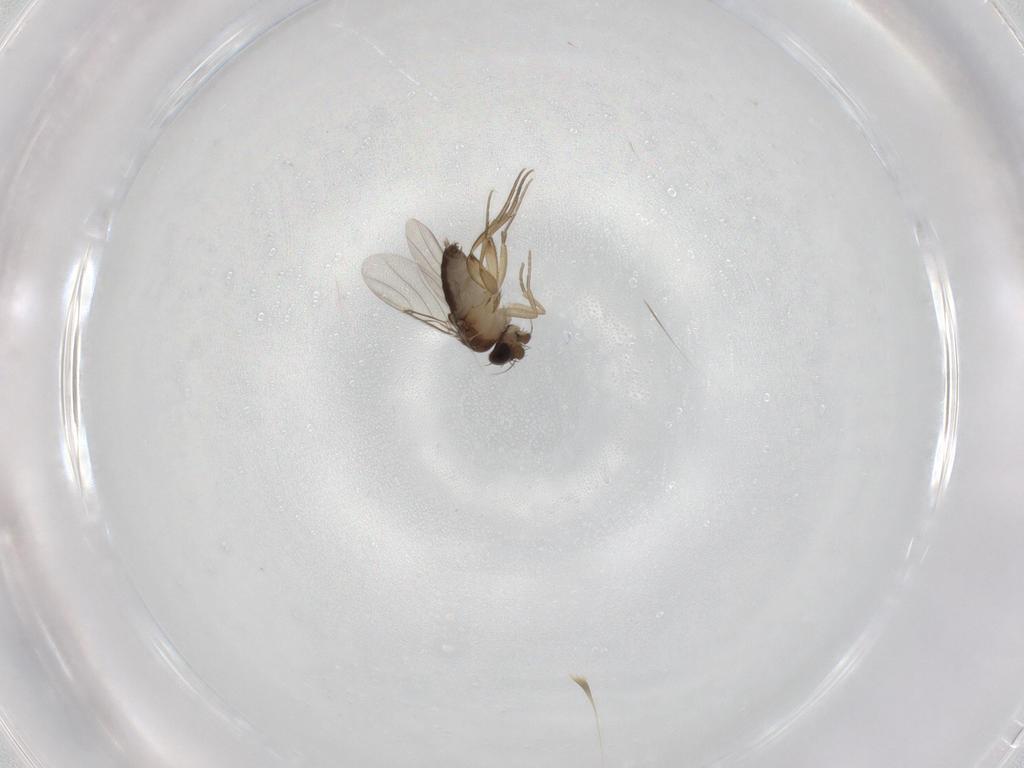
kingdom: Animalia
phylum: Arthropoda
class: Insecta
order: Diptera
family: Phoridae
